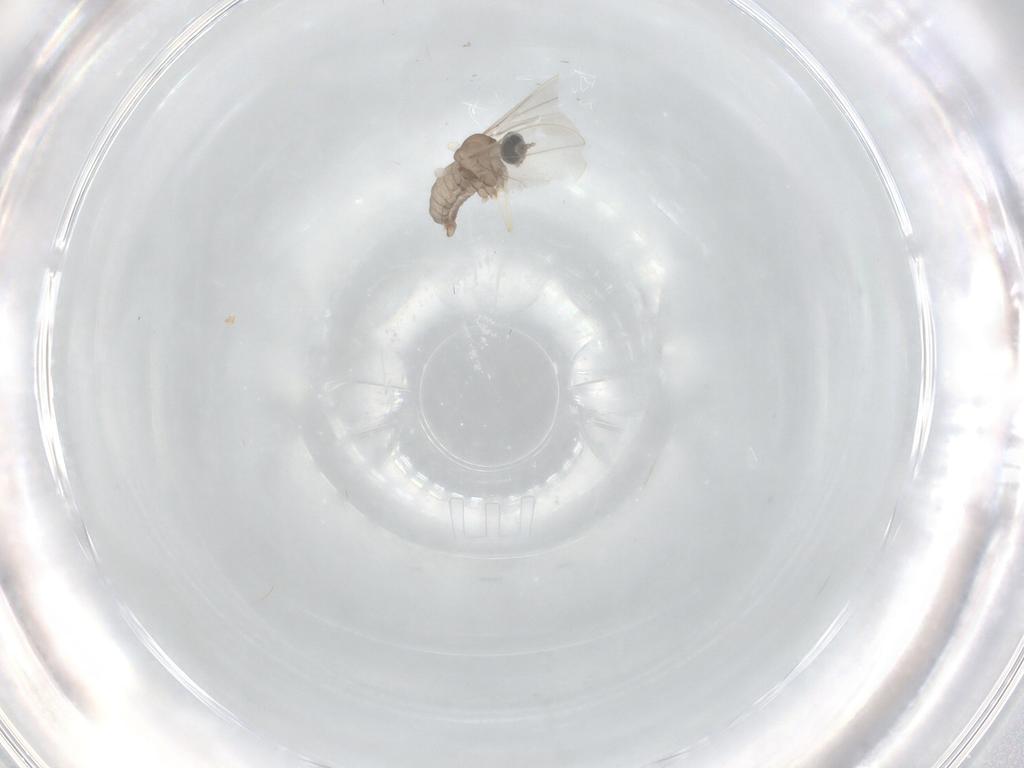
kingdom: Animalia
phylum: Arthropoda
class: Insecta
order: Diptera
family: Cecidomyiidae
